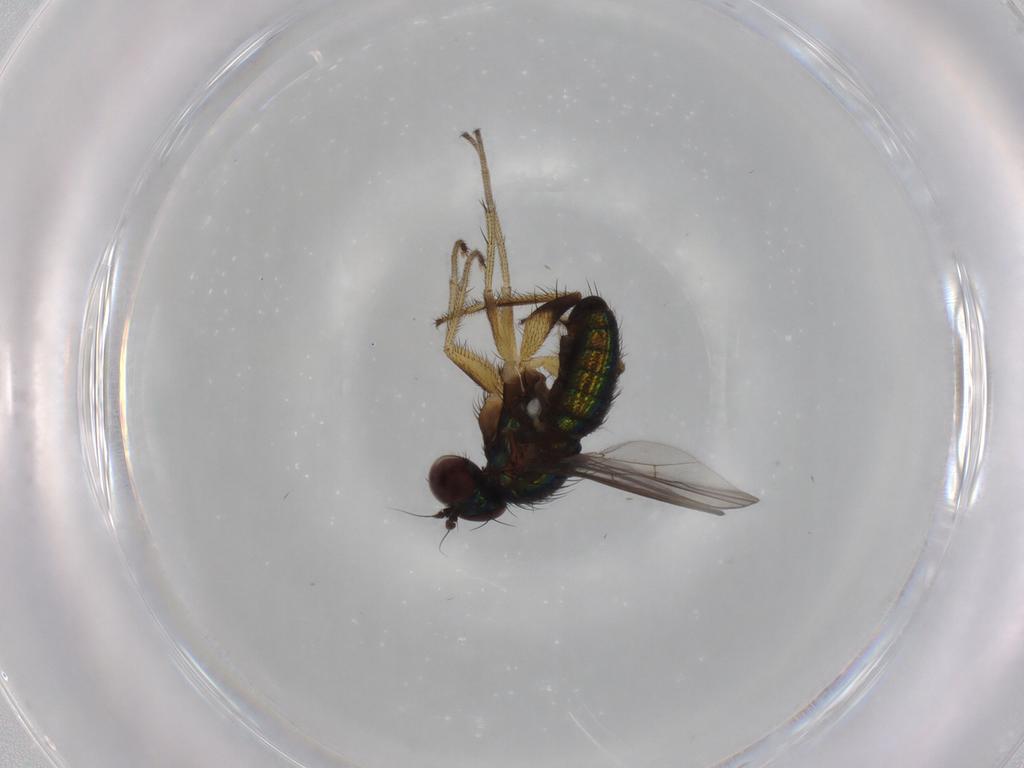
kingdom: Animalia
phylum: Arthropoda
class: Insecta
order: Diptera
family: Dolichopodidae
